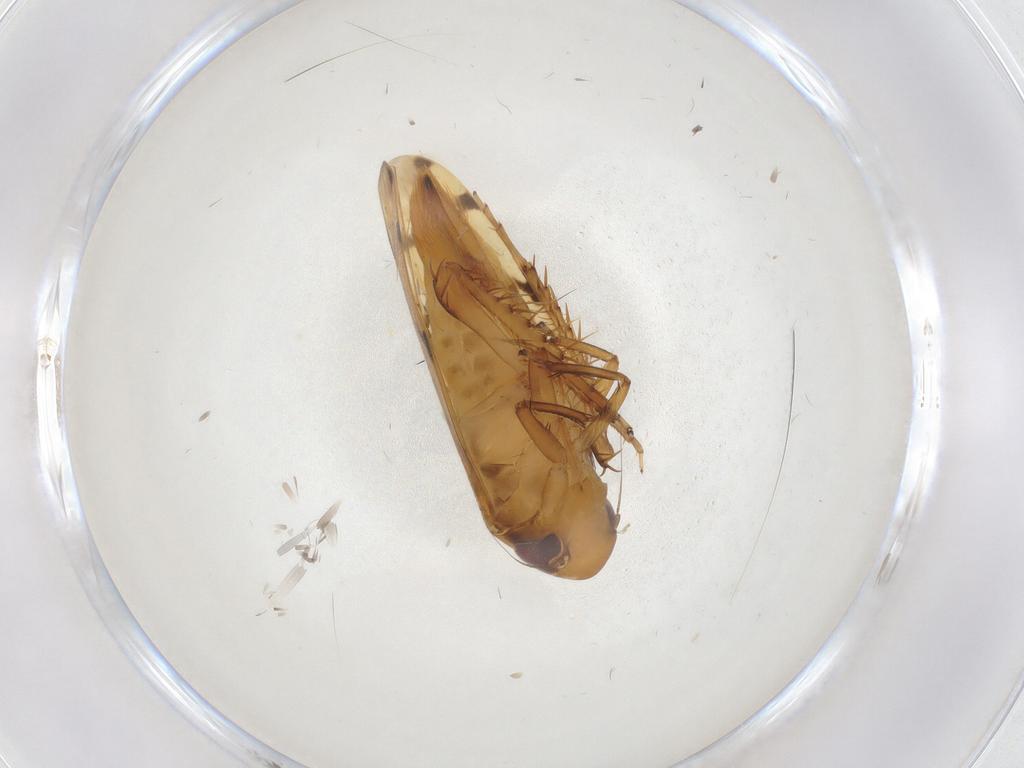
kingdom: Animalia
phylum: Arthropoda
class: Insecta
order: Hemiptera
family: Cicadellidae
